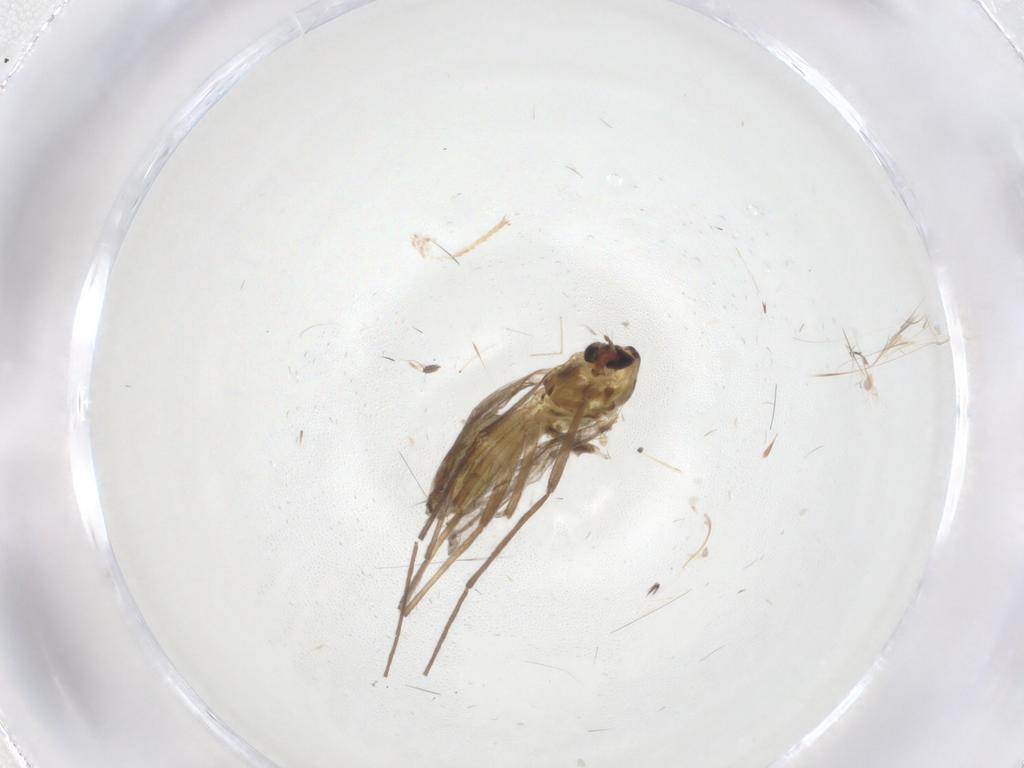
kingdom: Animalia
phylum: Arthropoda
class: Insecta
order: Diptera
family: Chironomidae
